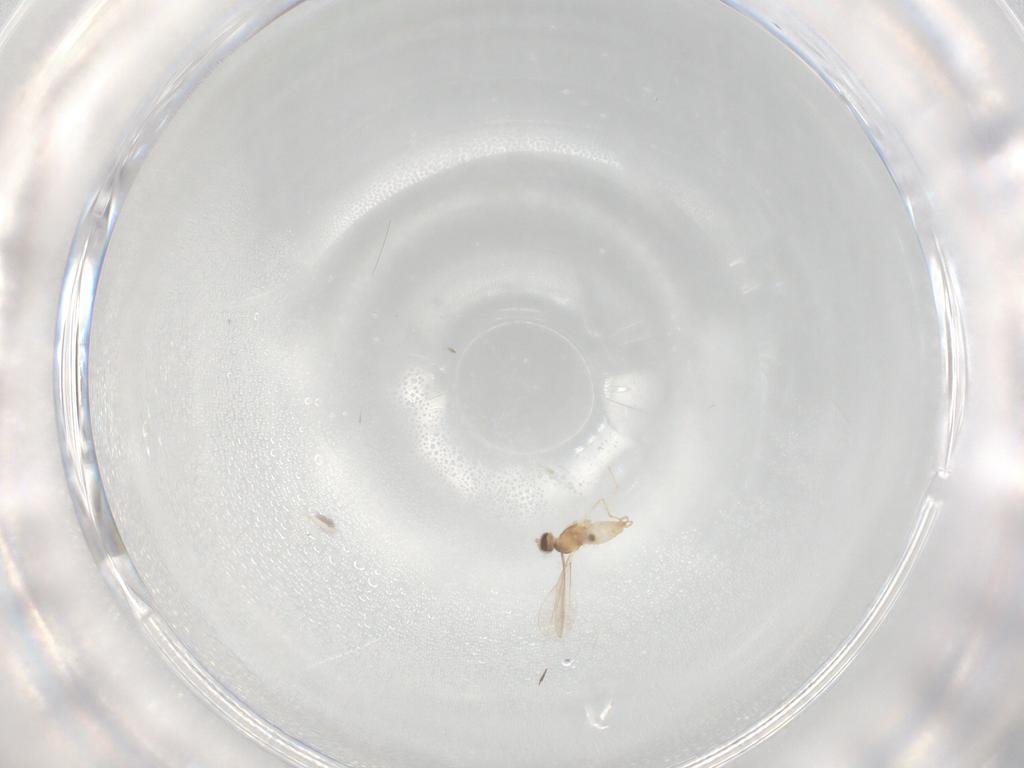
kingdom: Animalia
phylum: Arthropoda
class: Insecta
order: Diptera
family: Cecidomyiidae
